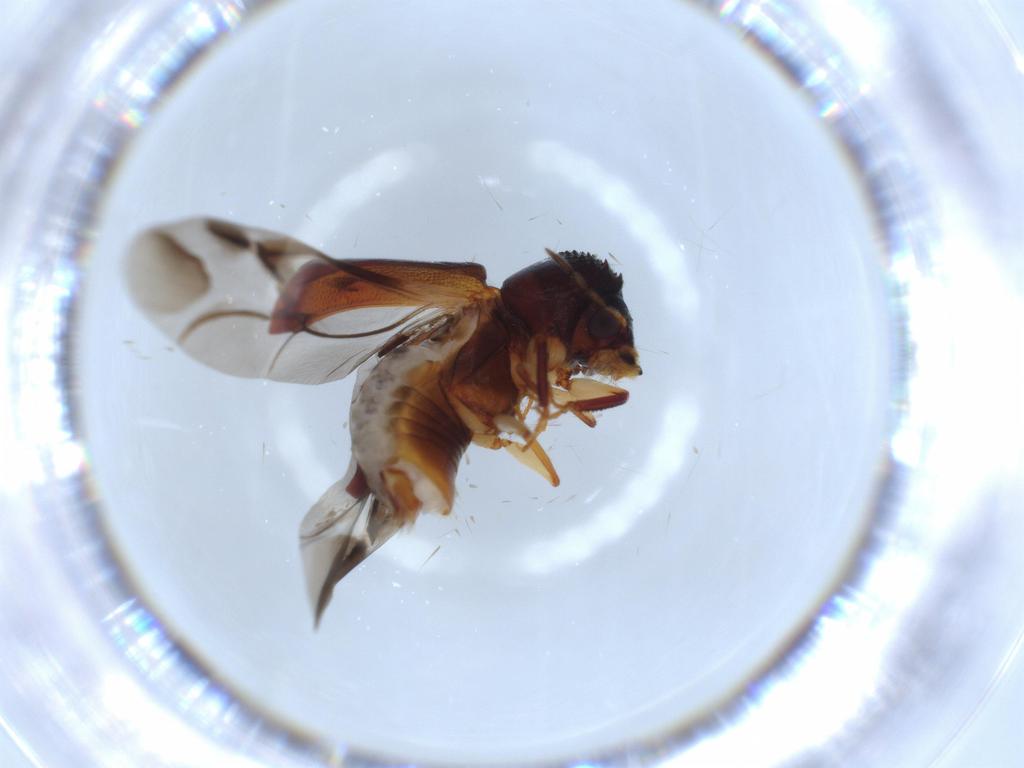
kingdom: Animalia
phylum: Arthropoda
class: Insecta
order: Coleoptera
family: Bostrichidae
